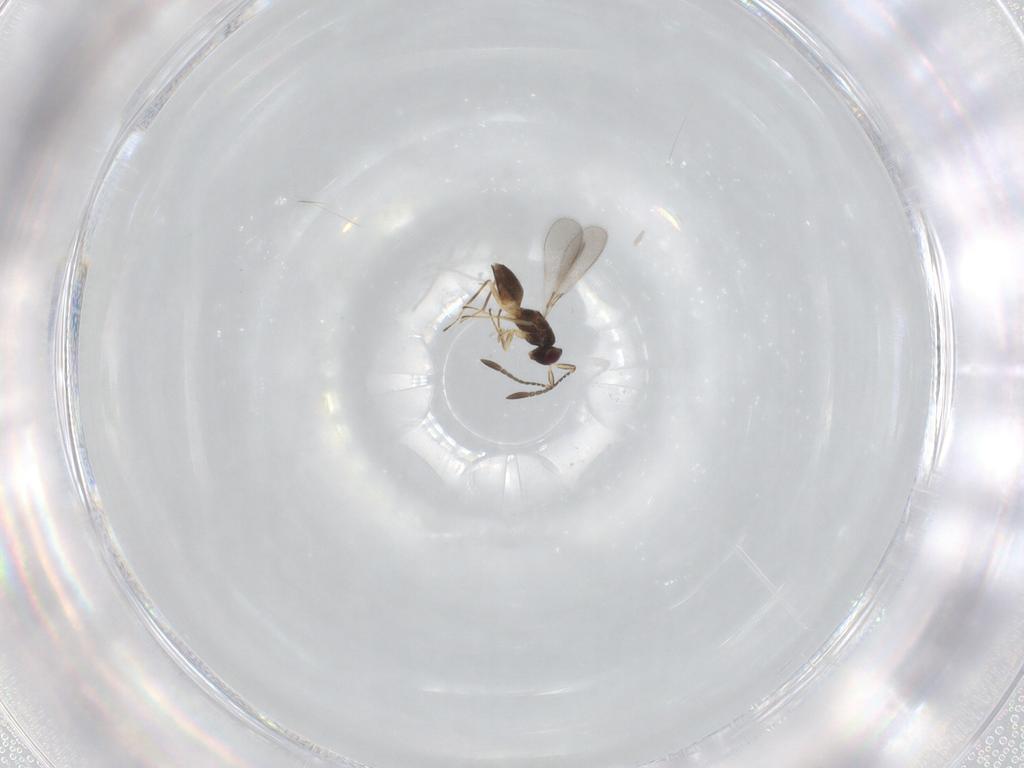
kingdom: Animalia
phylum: Arthropoda
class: Insecta
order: Hymenoptera
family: Mymaridae
